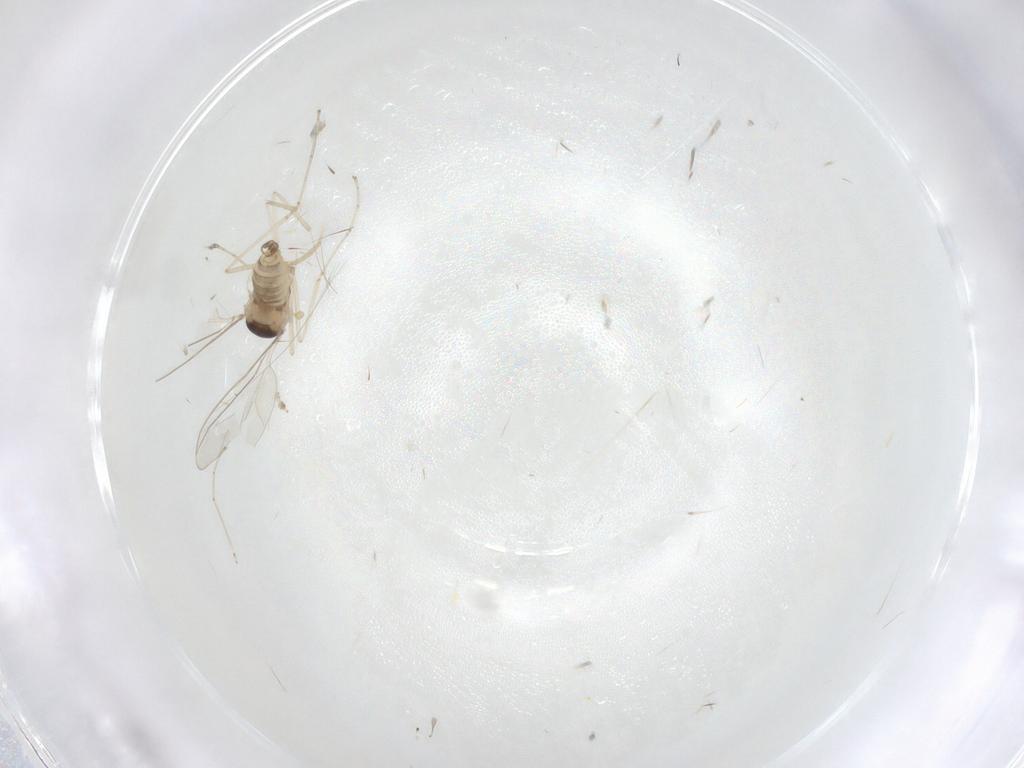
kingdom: Animalia
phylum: Arthropoda
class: Insecta
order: Diptera
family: Cecidomyiidae
